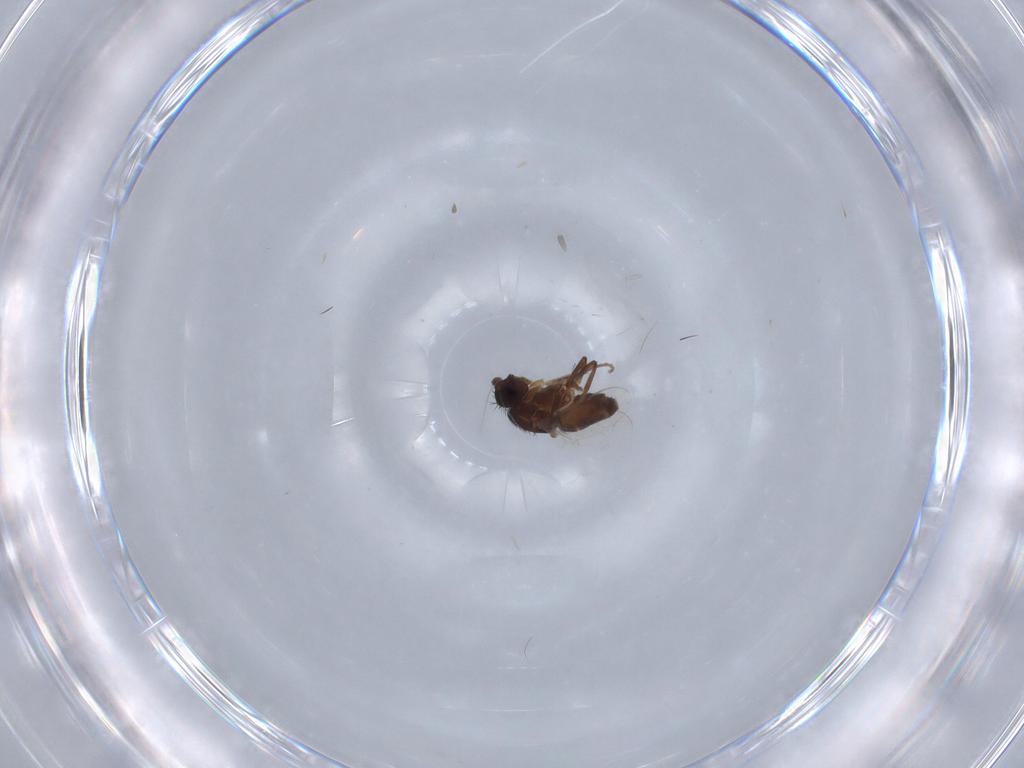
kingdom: Animalia
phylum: Arthropoda
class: Insecta
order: Diptera
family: Sphaeroceridae
